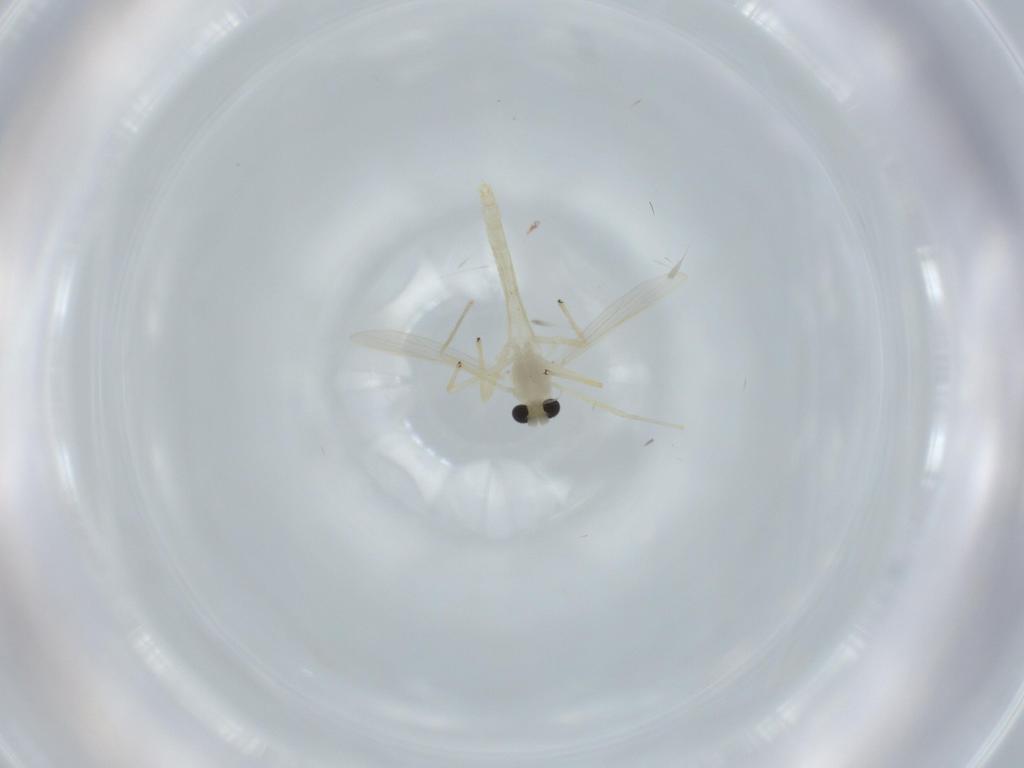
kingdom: Animalia
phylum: Arthropoda
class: Insecta
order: Diptera
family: Chironomidae
